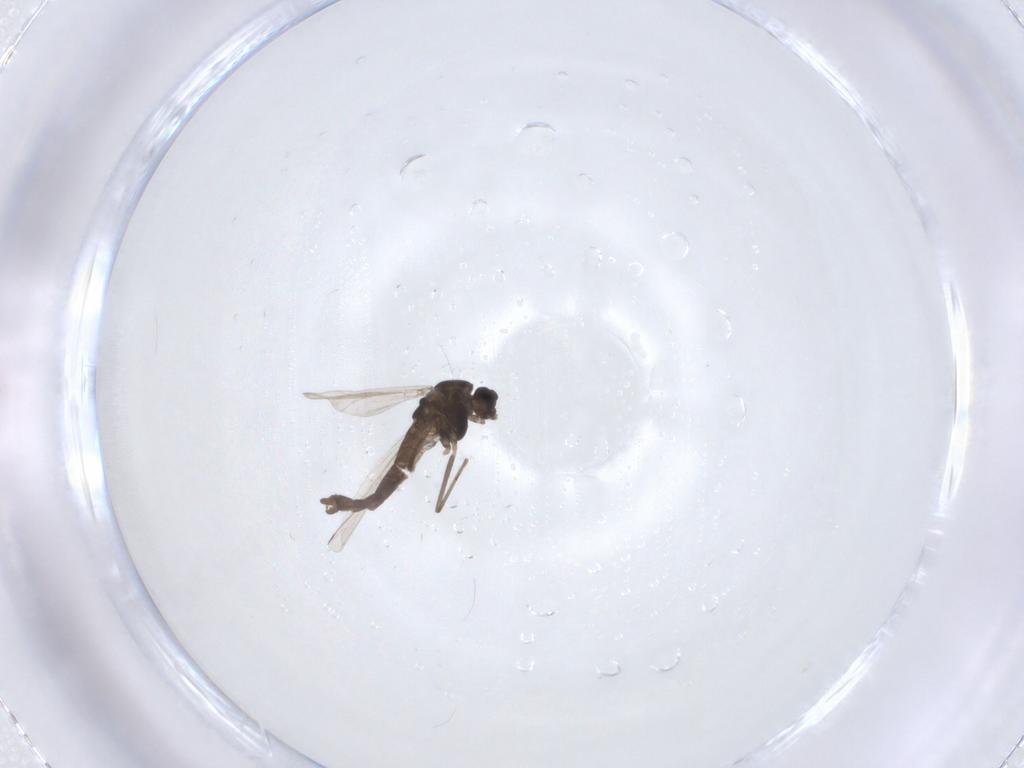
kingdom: Animalia
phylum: Arthropoda
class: Insecta
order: Diptera
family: Chironomidae
